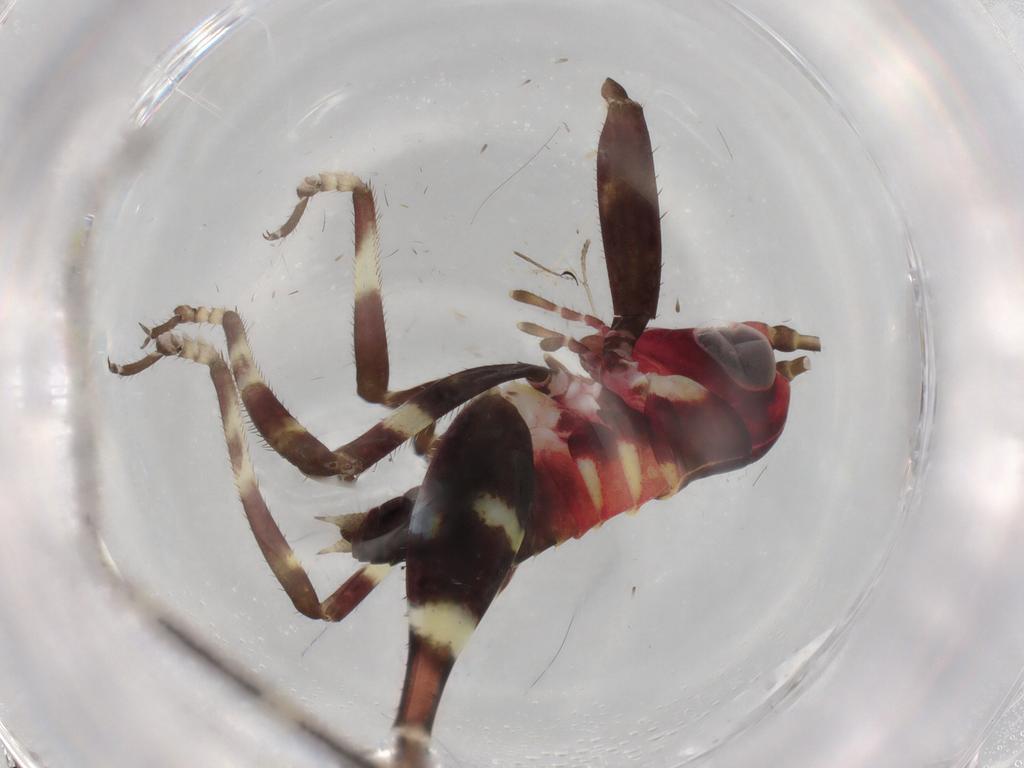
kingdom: Animalia
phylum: Arthropoda
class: Insecta
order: Orthoptera
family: Tettigoniidae
